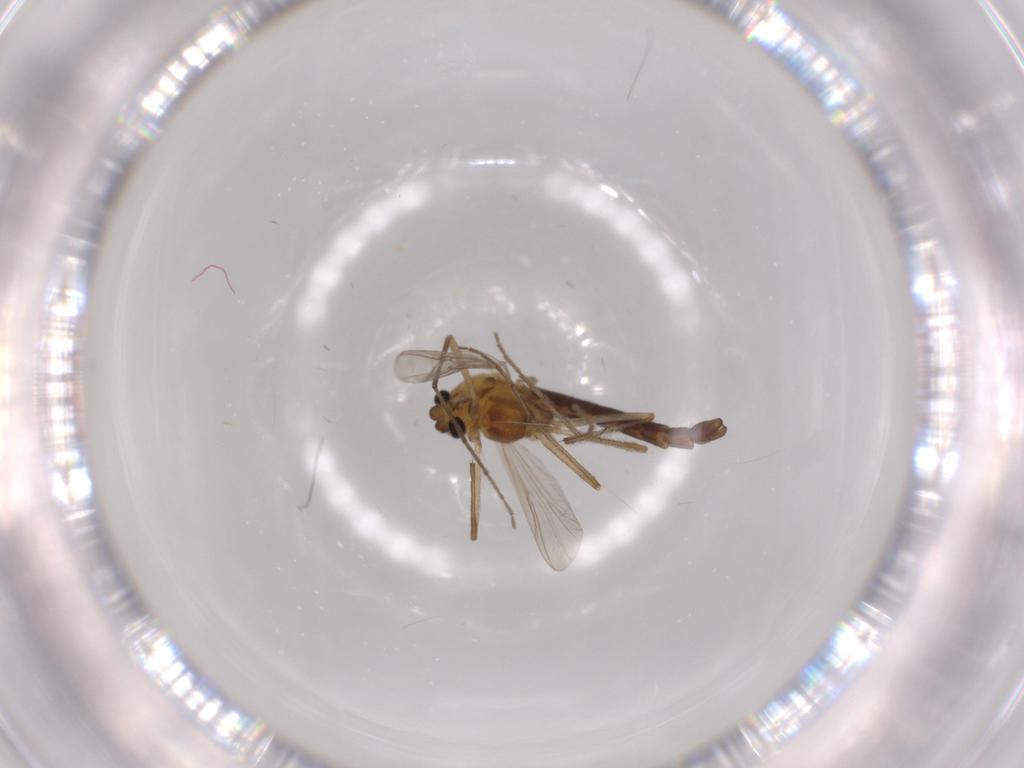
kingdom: Animalia
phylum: Arthropoda
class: Insecta
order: Diptera
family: Chironomidae
